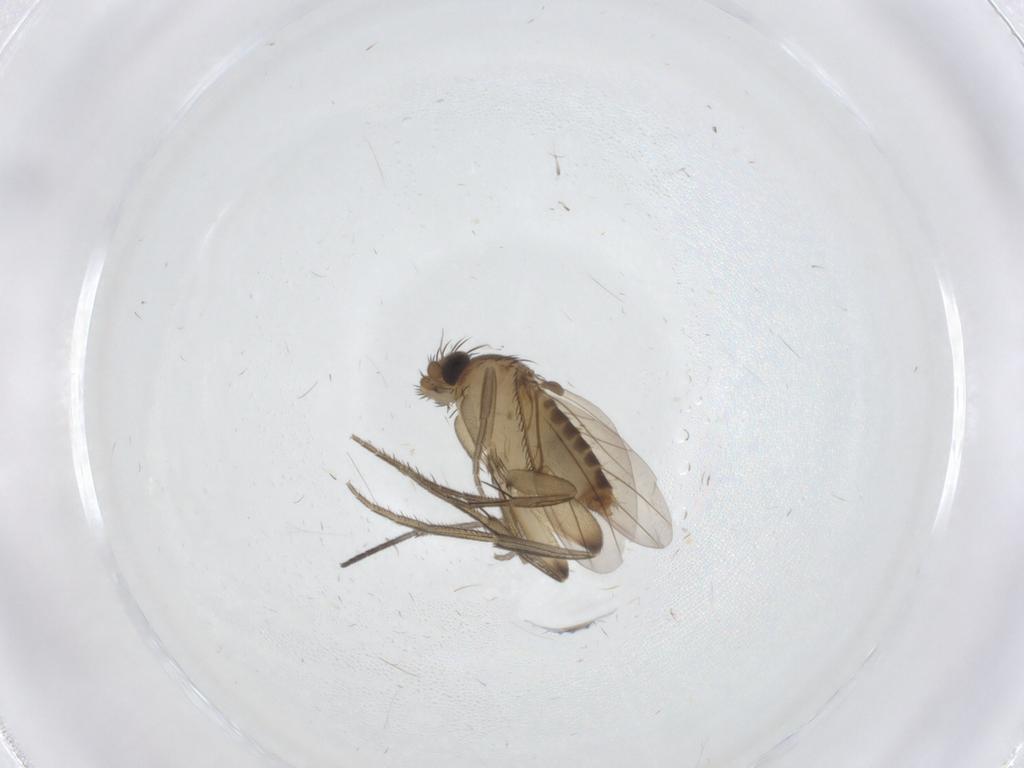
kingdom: Animalia
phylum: Arthropoda
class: Insecta
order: Diptera
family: Phoridae
